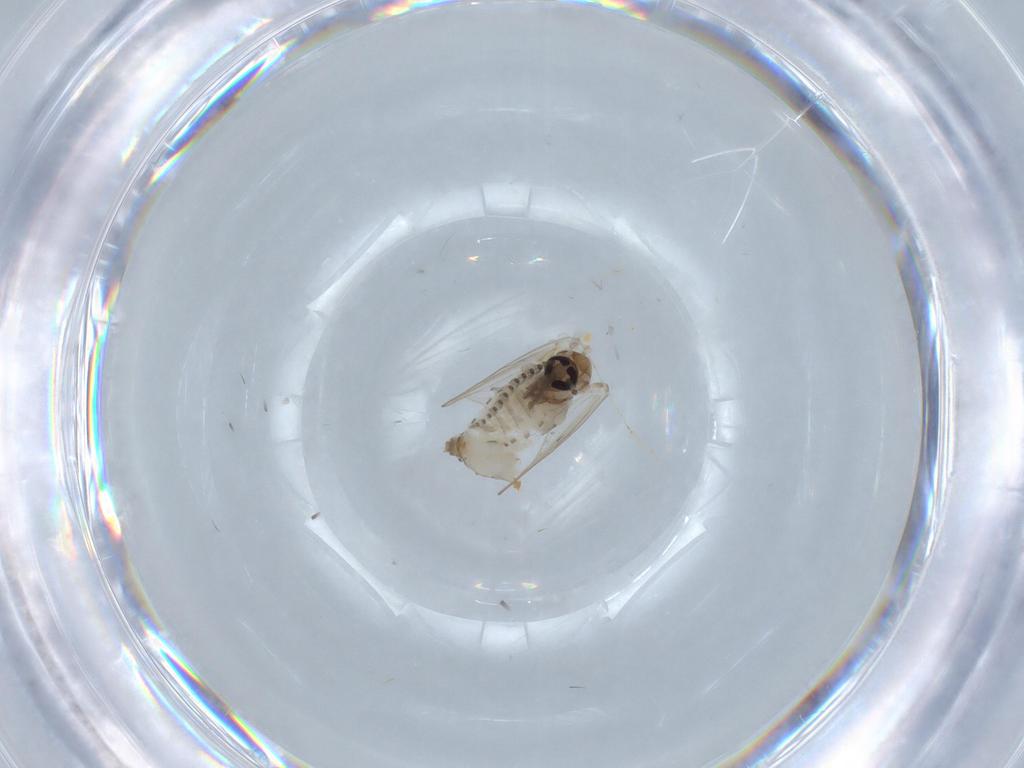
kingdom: Animalia
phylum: Arthropoda
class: Insecta
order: Diptera
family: Psychodidae
